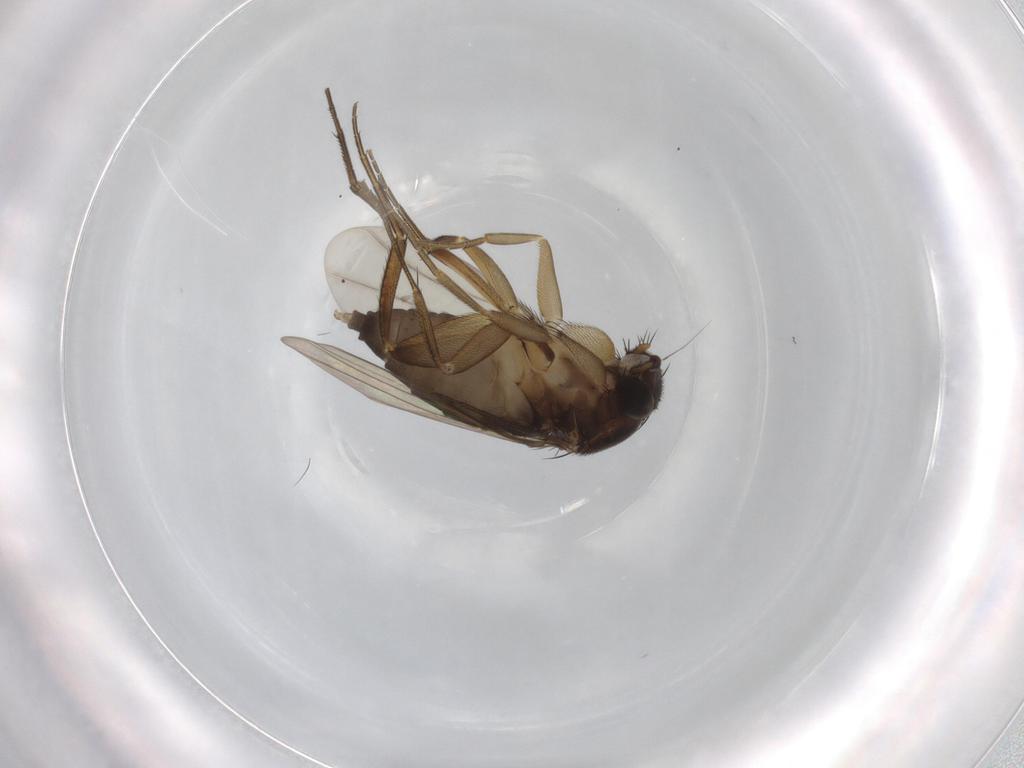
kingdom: Animalia
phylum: Arthropoda
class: Insecta
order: Diptera
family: Phoridae
